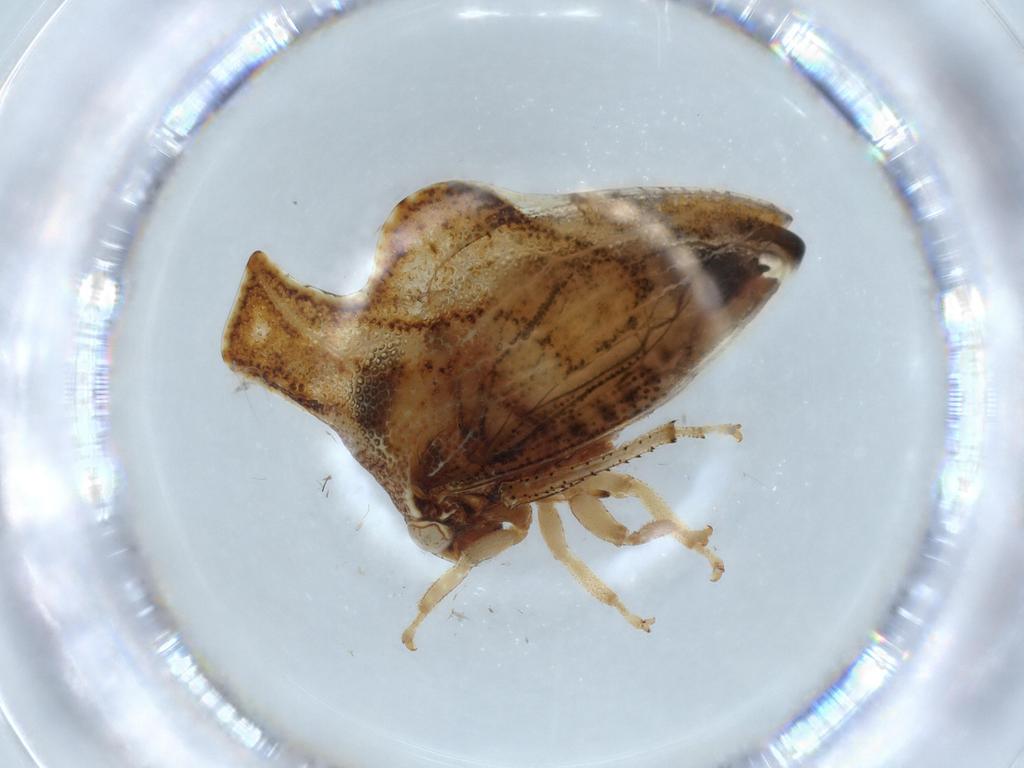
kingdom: Animalia
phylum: Arthropoda
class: Insecta
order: Hemiptera
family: Membracidae
